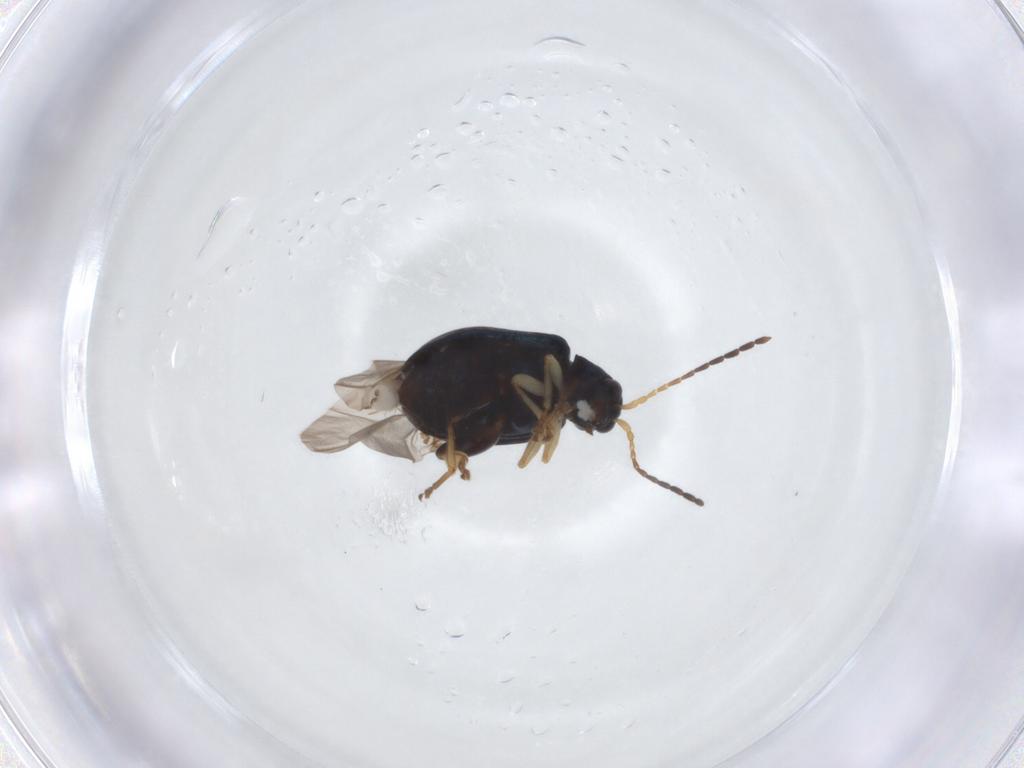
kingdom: Animalia
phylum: Arthropoda
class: Insecta
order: Coleoptera
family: Chrysomelidae
